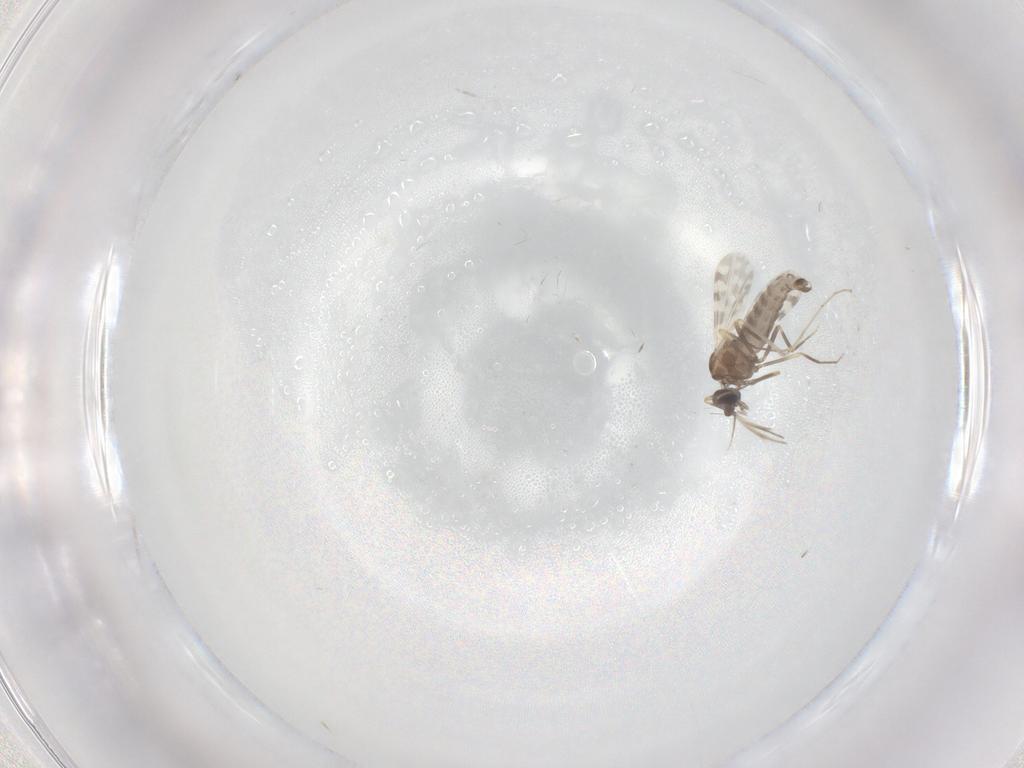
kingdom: Animalia
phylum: Arthropoda
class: Insecta
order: Diptera
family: Ceratopogonidae
